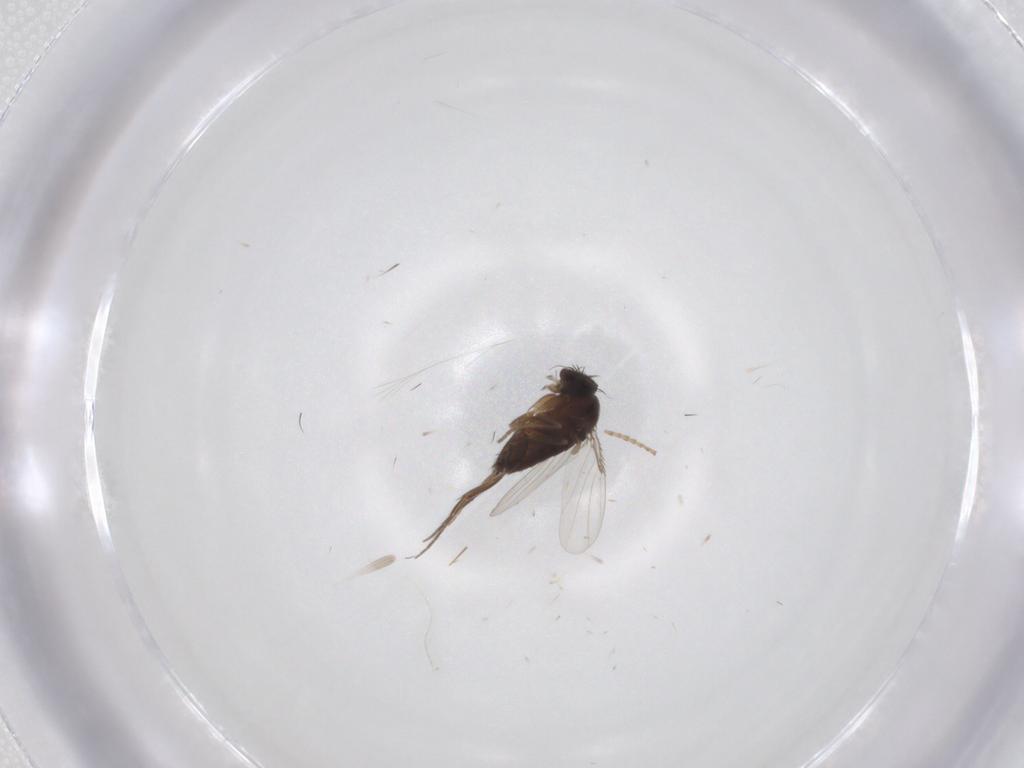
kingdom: Animalia
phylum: Arthropoda
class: Insecta
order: Diptera
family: Phoridae
